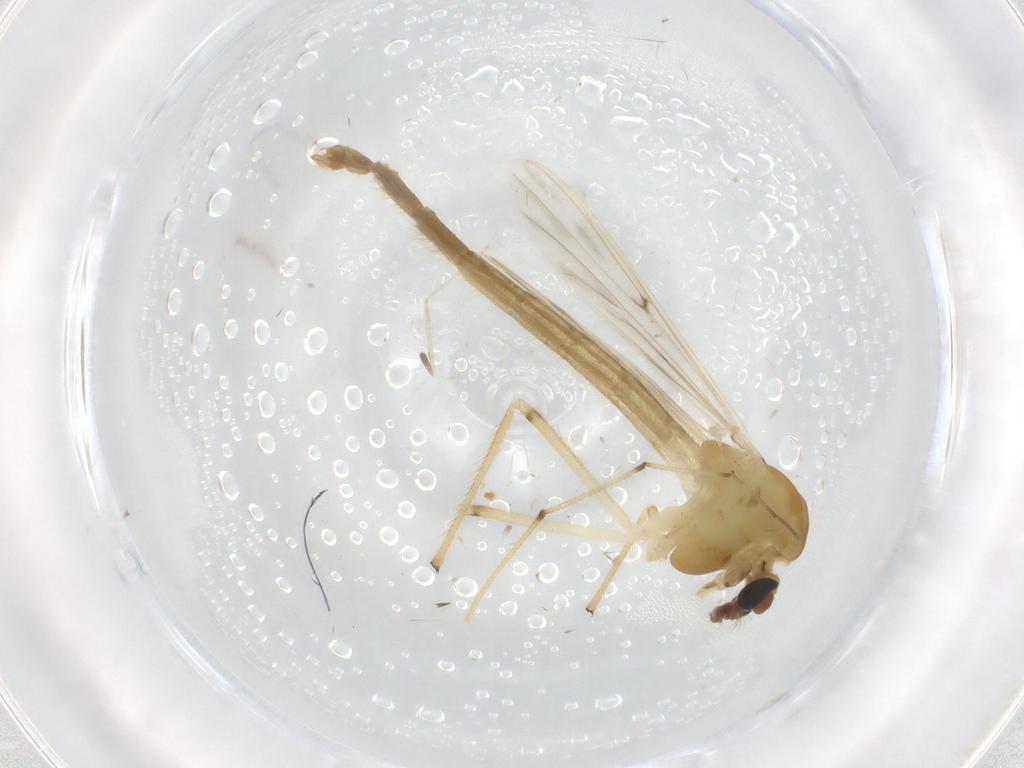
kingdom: Animalia
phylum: Arthropoda
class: Insecta
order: Diptera
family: Chironomidae
